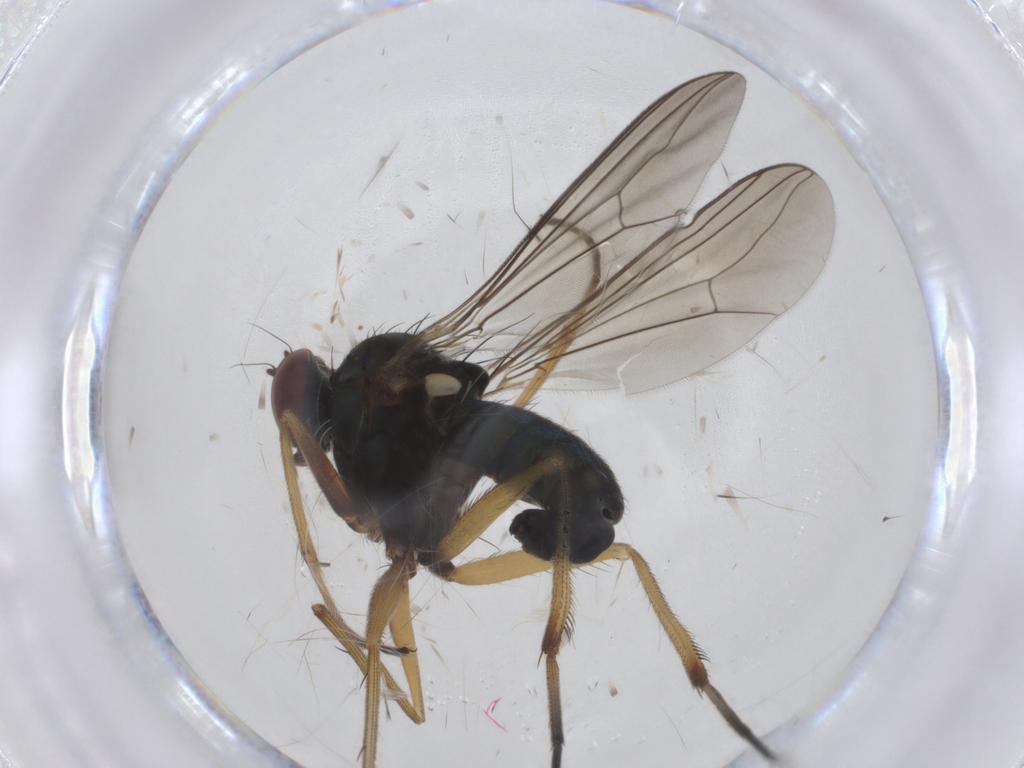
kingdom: Animalia
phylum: Arthropoda
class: Insecta
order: Diptera
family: Dolichopodidae
